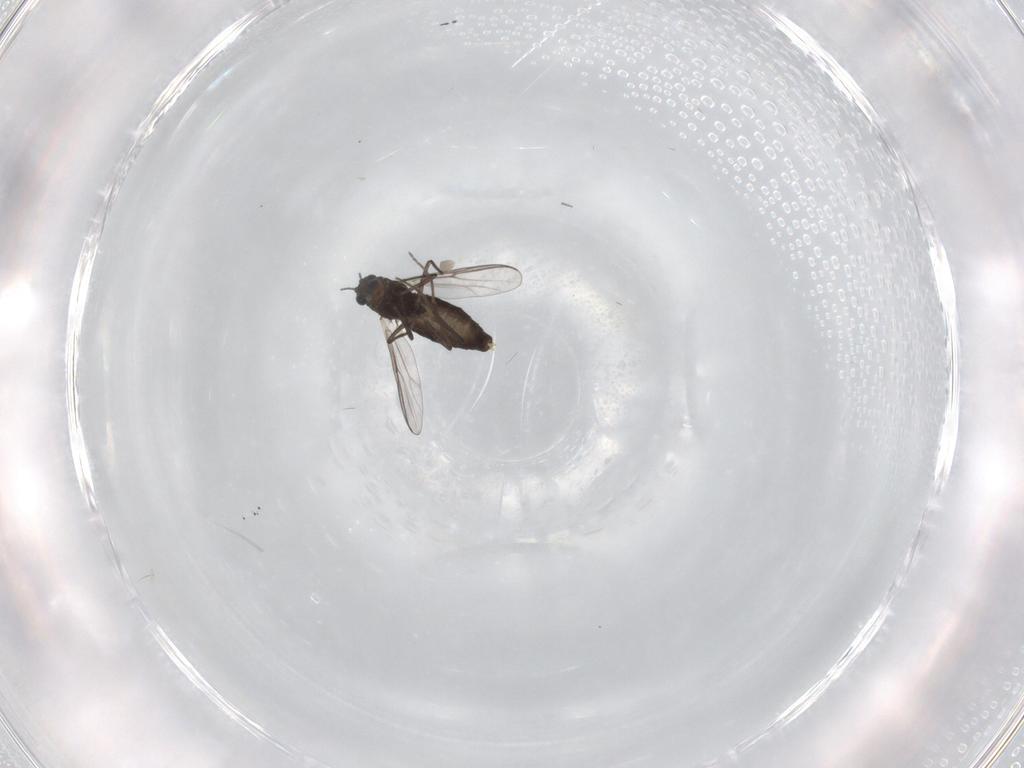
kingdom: Animalia
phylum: Arthropoda
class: Insecta
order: Diptera
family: Chironomidae
